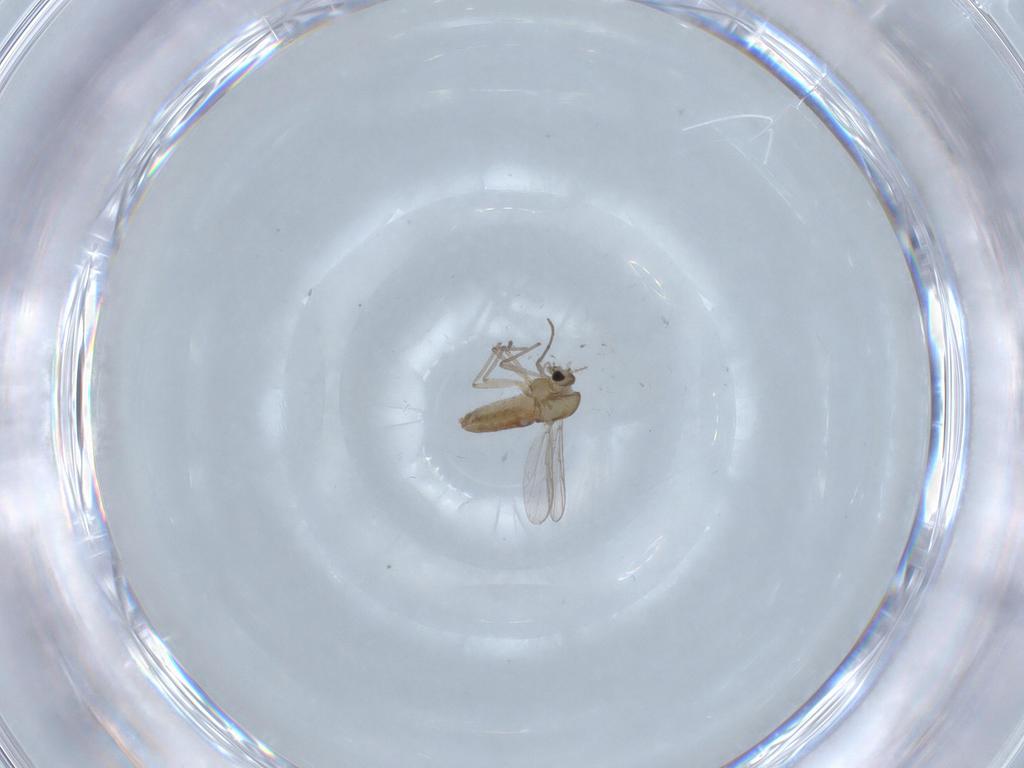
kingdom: Animalia
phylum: Arthropoda
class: Insecta
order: Diptera
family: Chironomidae
